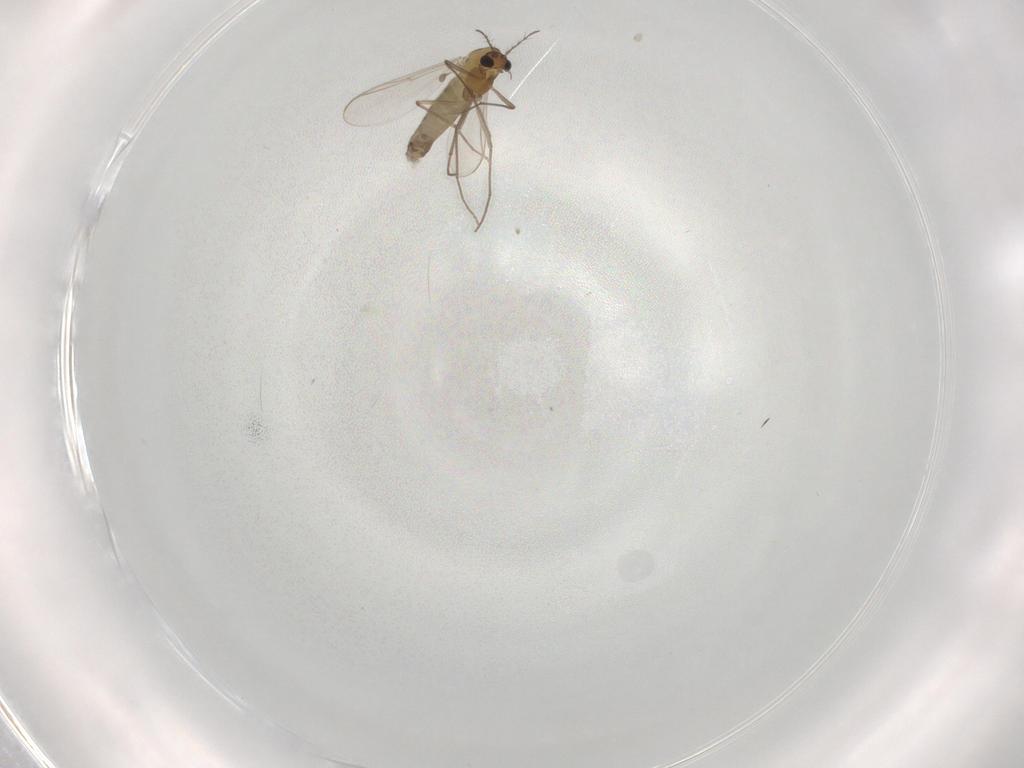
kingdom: Animalia
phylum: Arthropoda
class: Insecta
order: Diptera
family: Chironomidae
